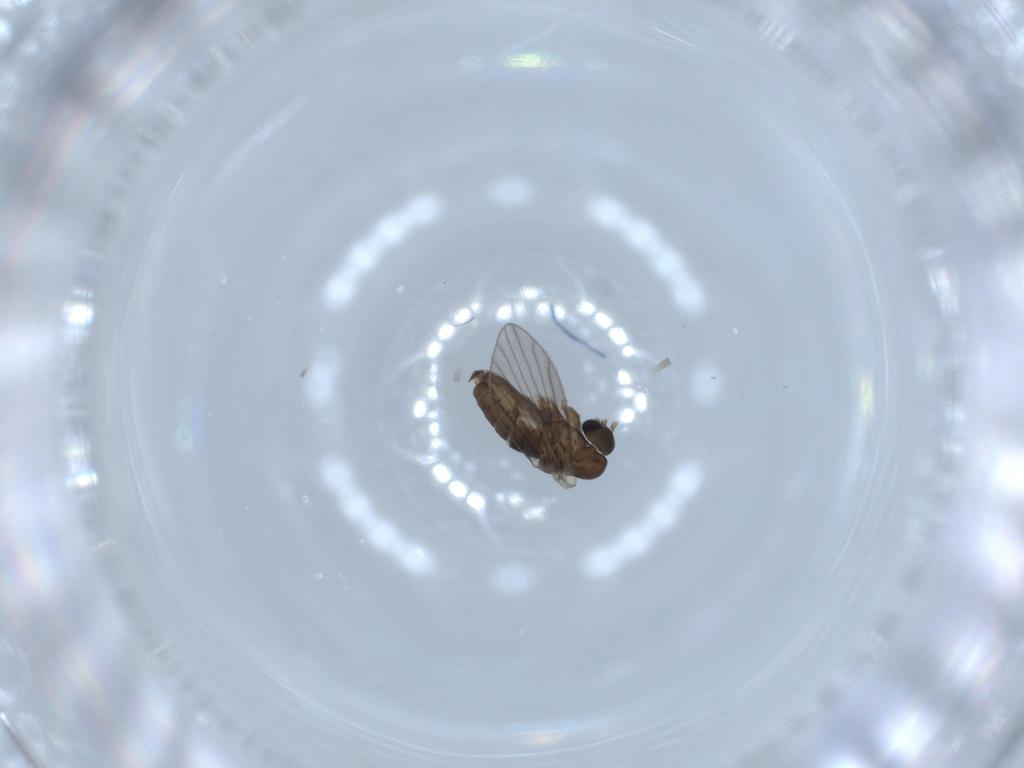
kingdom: Animalia
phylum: Arthropoda
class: Insecta
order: Diptera
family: Psychodidae
